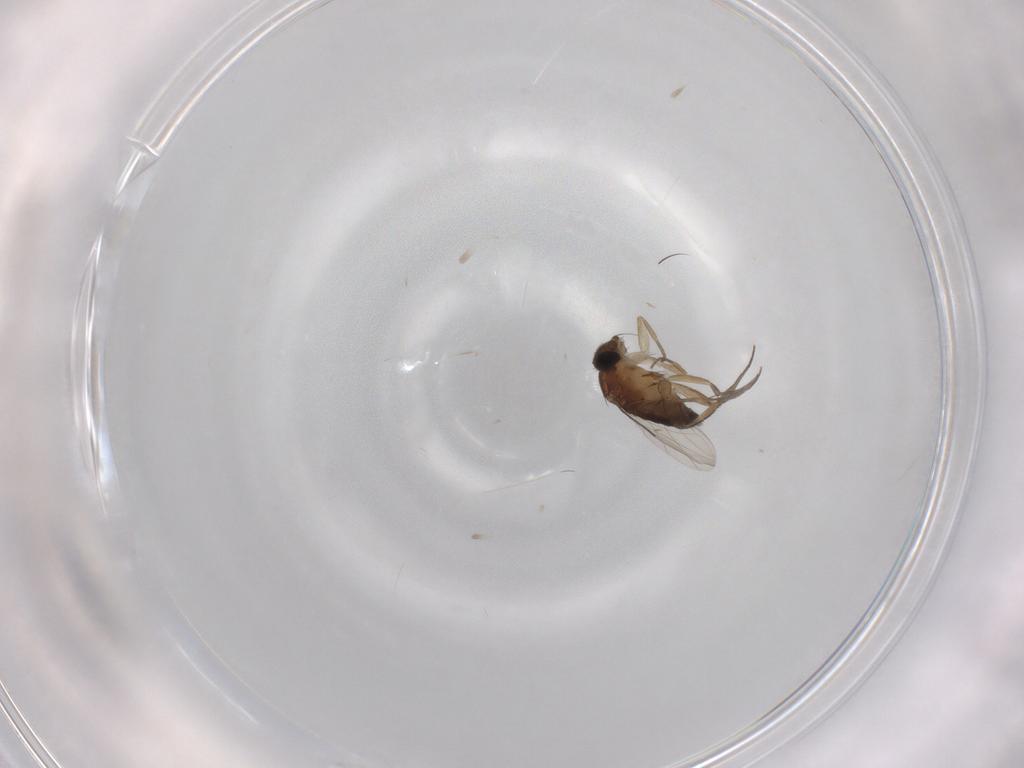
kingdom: Animalia
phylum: Arthropoda
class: Insecta
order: Diptera
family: Phoridae
